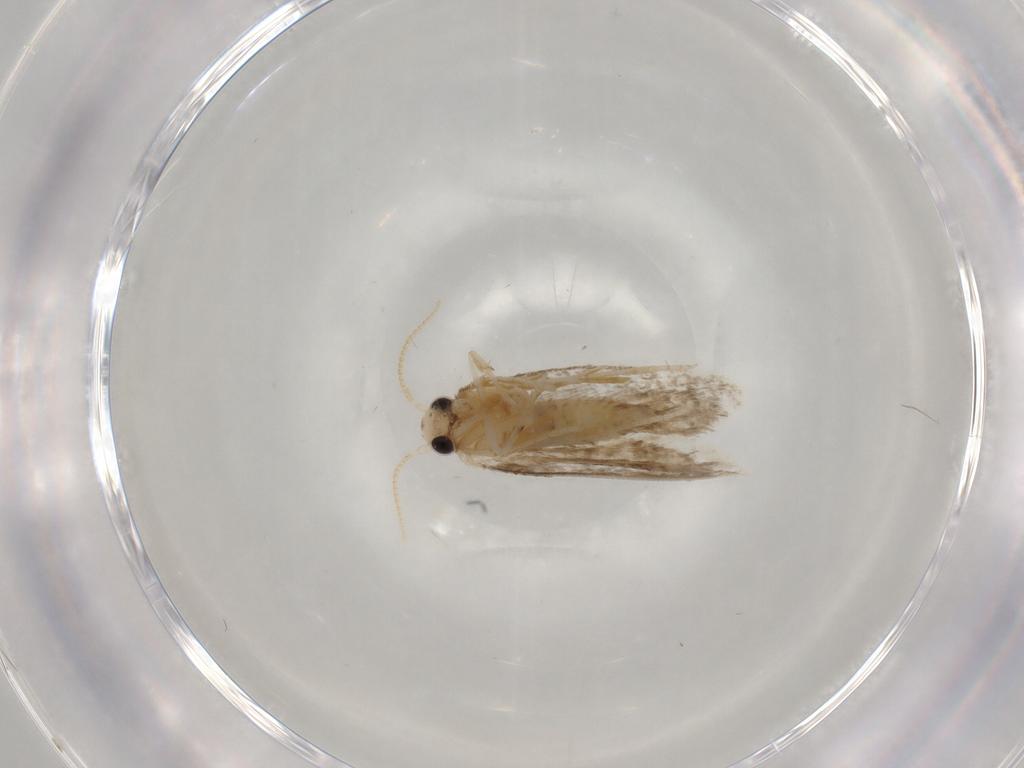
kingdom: Animalia
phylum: Arthropoda
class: Insecta
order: Lepidoptera
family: Psychidae
